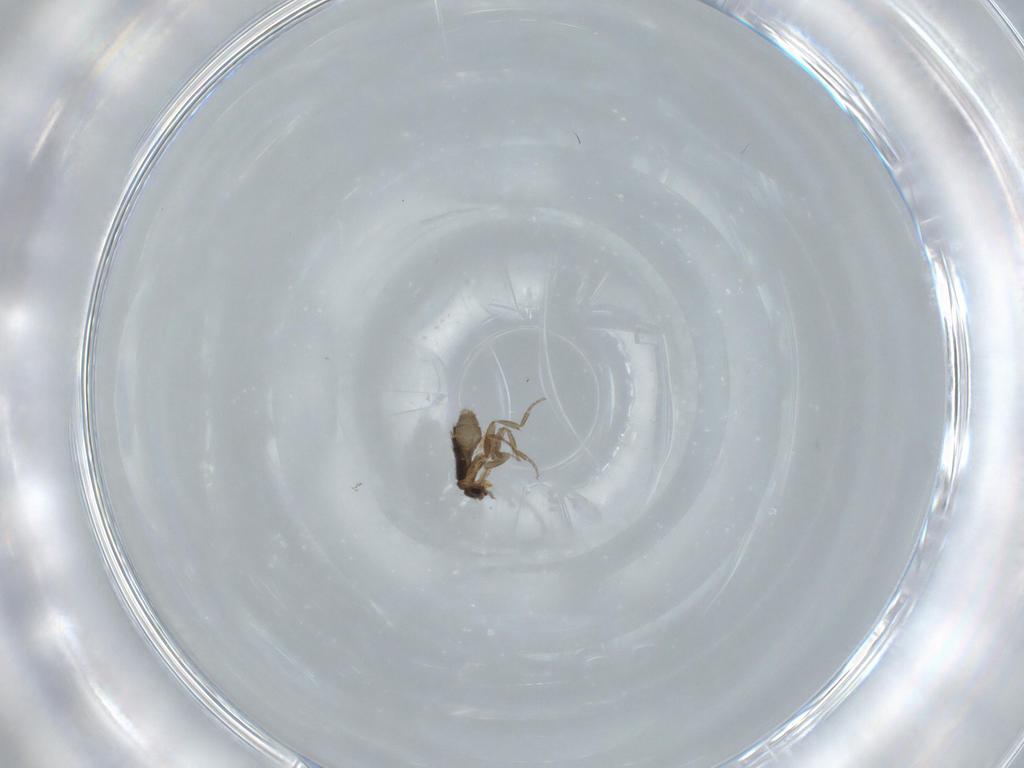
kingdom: Animalia
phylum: Arthropoda
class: Insecta
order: Diptera
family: Phoridae
